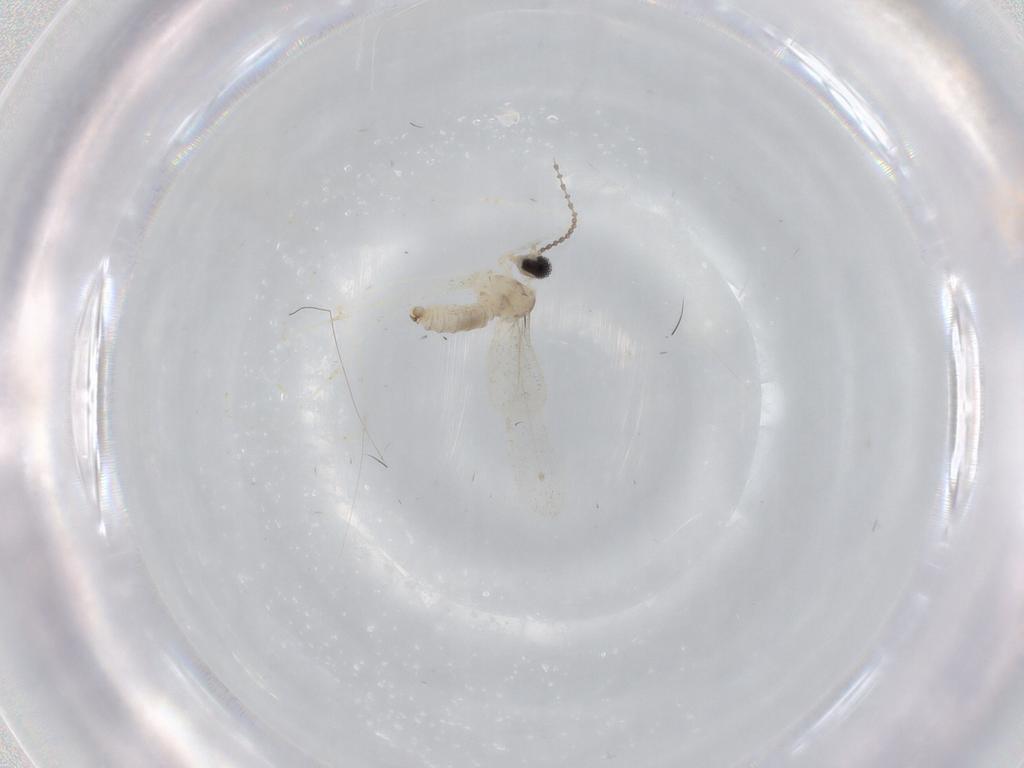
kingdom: Animalia
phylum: Arthropoda
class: Insecta
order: Diptera
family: Cecidomyiidae
